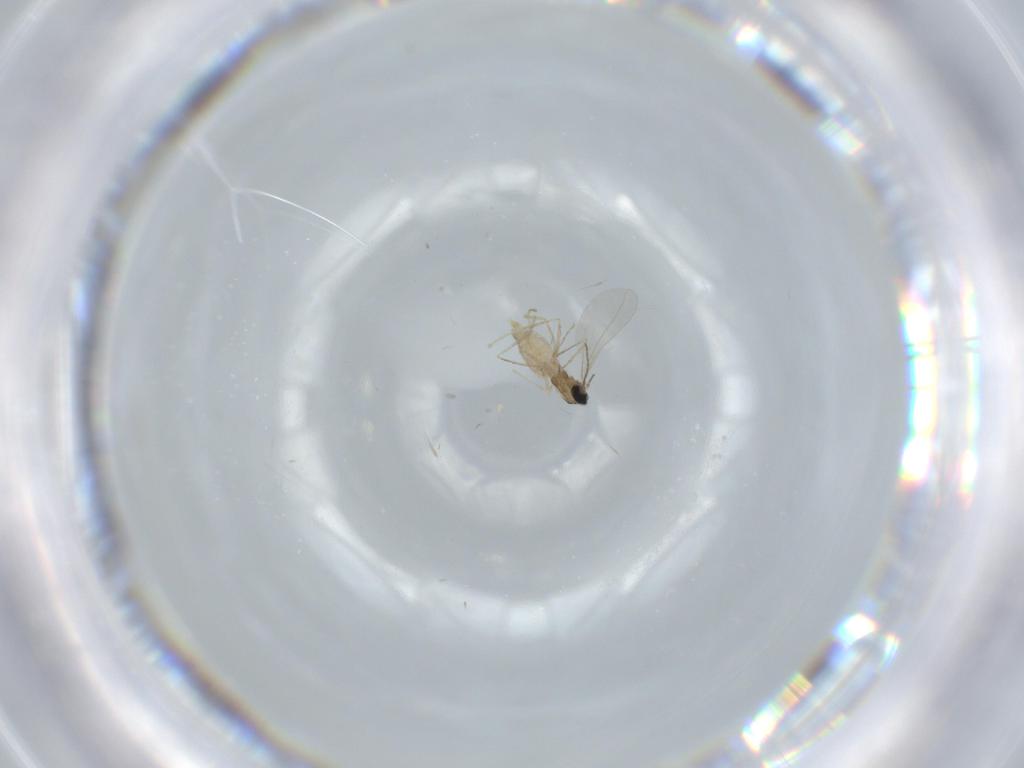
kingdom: Animalia
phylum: Arthropoda
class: Insecta
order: Diptera
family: Cecidomyiidae
